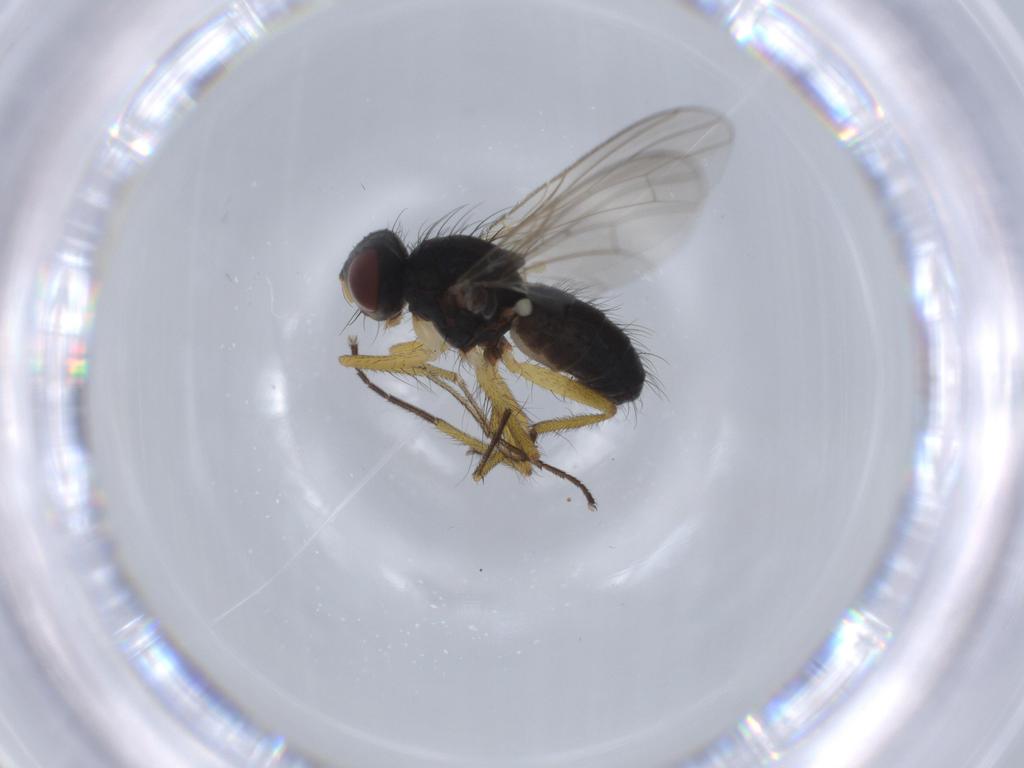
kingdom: Animalia
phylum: Arthropoda
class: Insecta
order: Diptera
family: Muscidae
